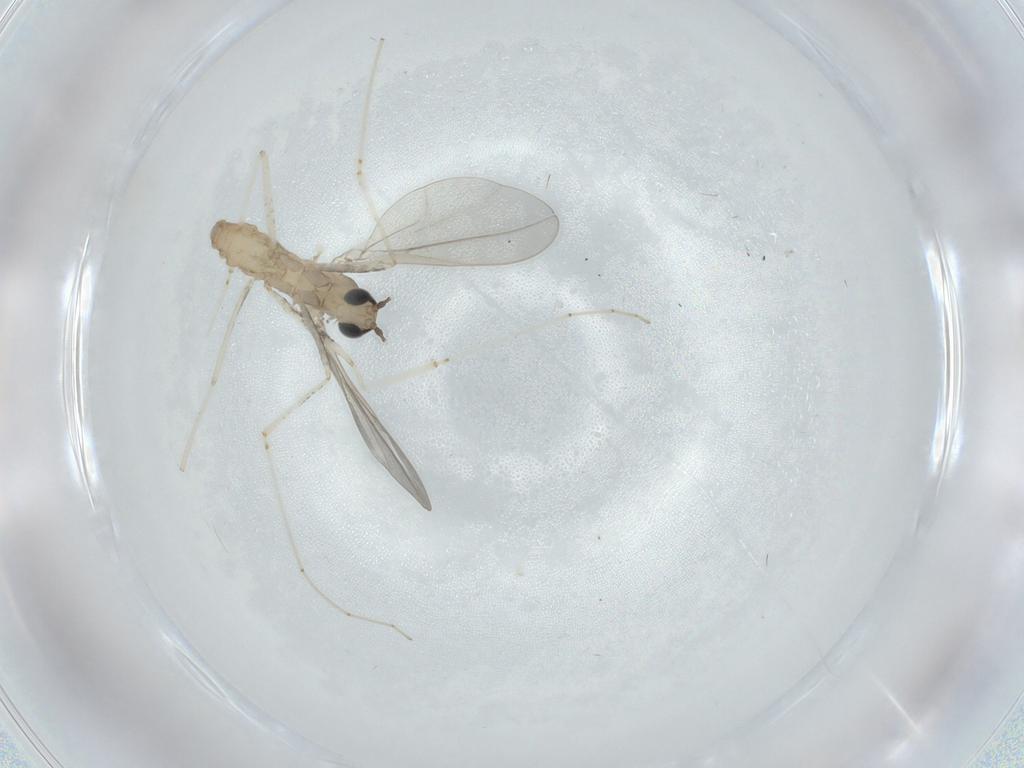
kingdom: Animalia
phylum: Arthropoda
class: Insecta
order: Diptera
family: Cecidomyiidae
